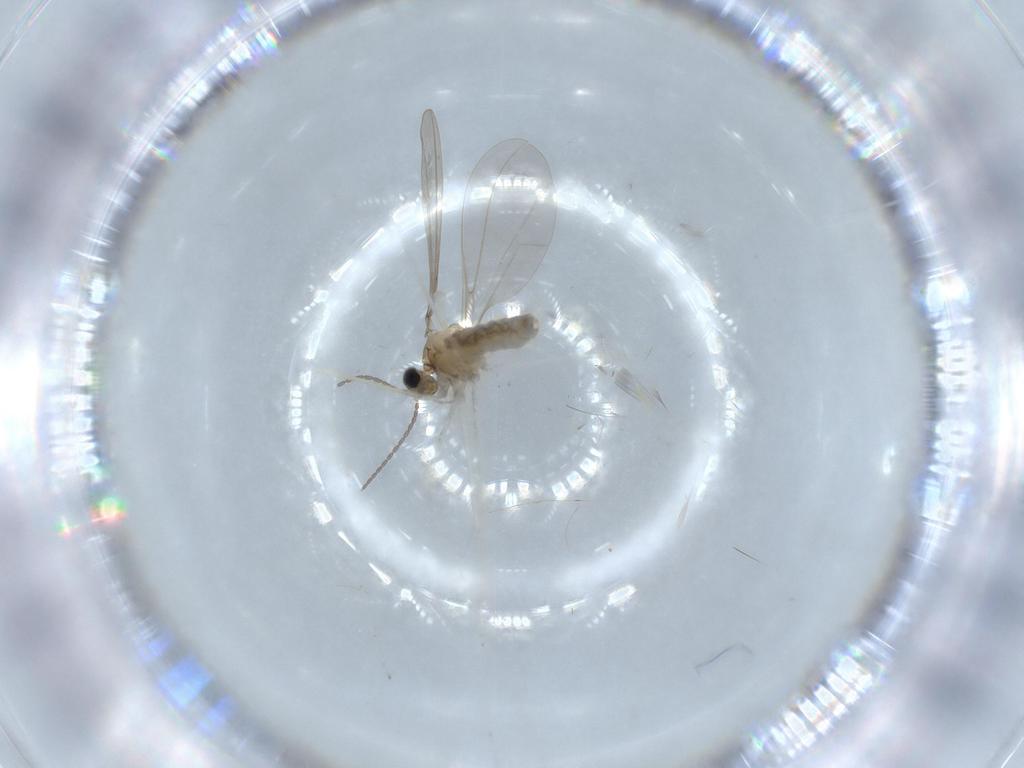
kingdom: Animalia
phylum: Arthropoda
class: Insecta
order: Diptera
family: Cecidomyiidae
